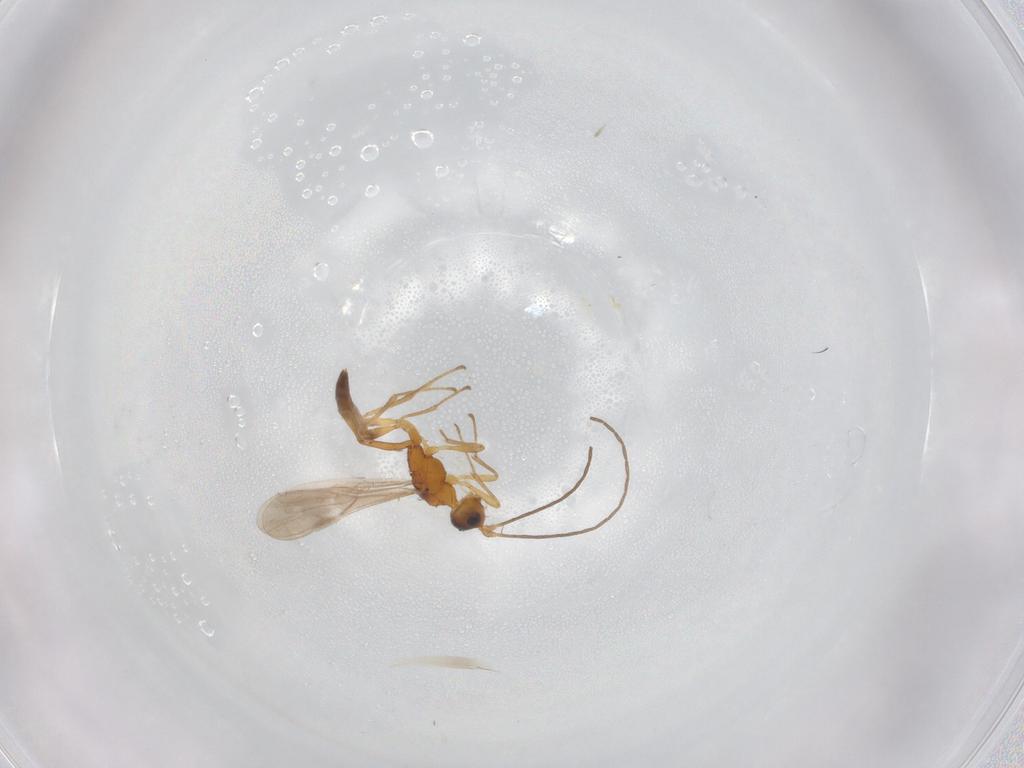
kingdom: Animalia
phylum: Arthropoda
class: Insecta
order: Hymenoptera
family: Braconidae
